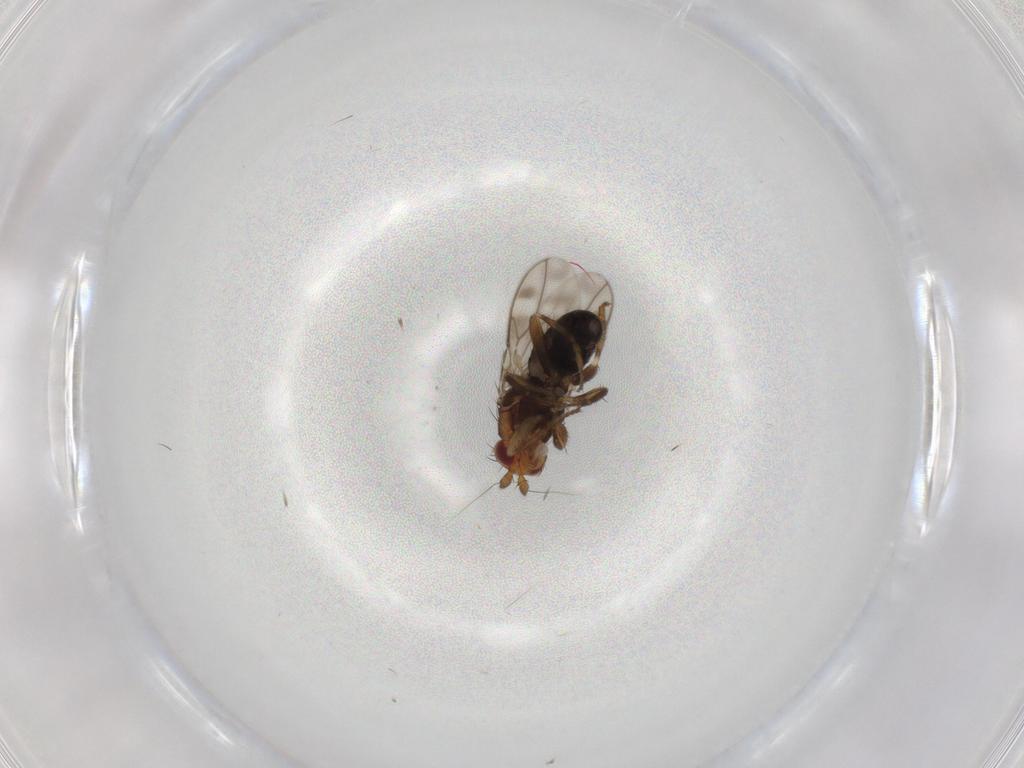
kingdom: Animalia
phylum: Arthropoda
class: Insecta
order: Diptera
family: Sphaeroceridae
